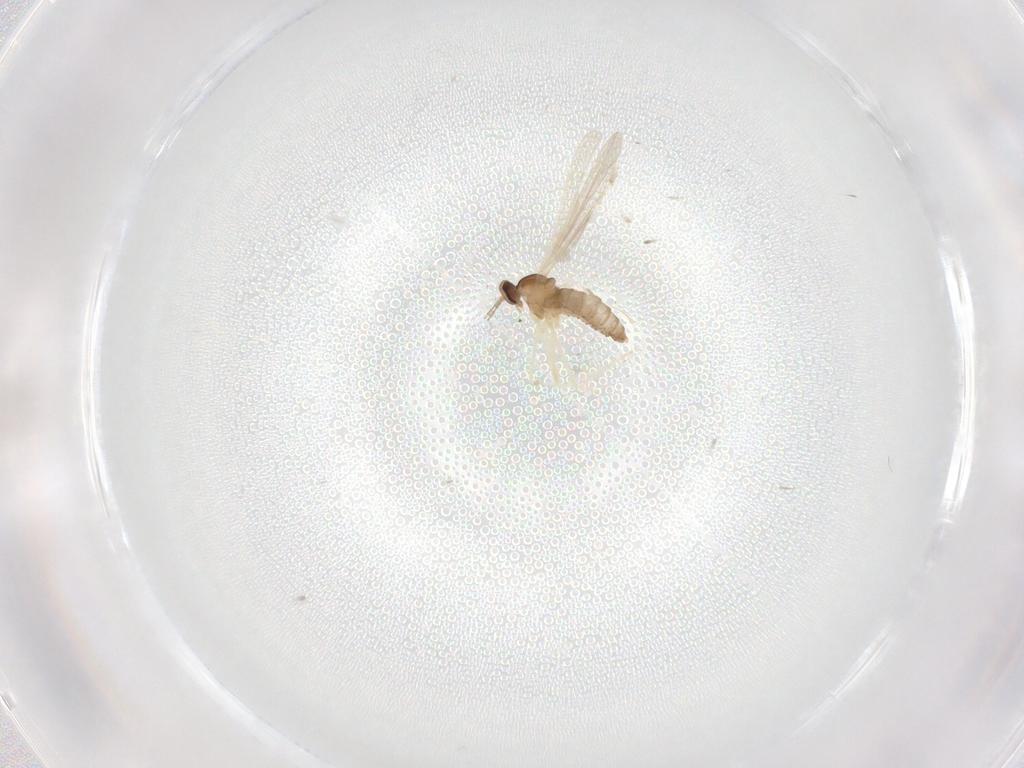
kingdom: Animalia
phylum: Arthropoda
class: Insecta
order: Diptera
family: Cecidomyiidae
